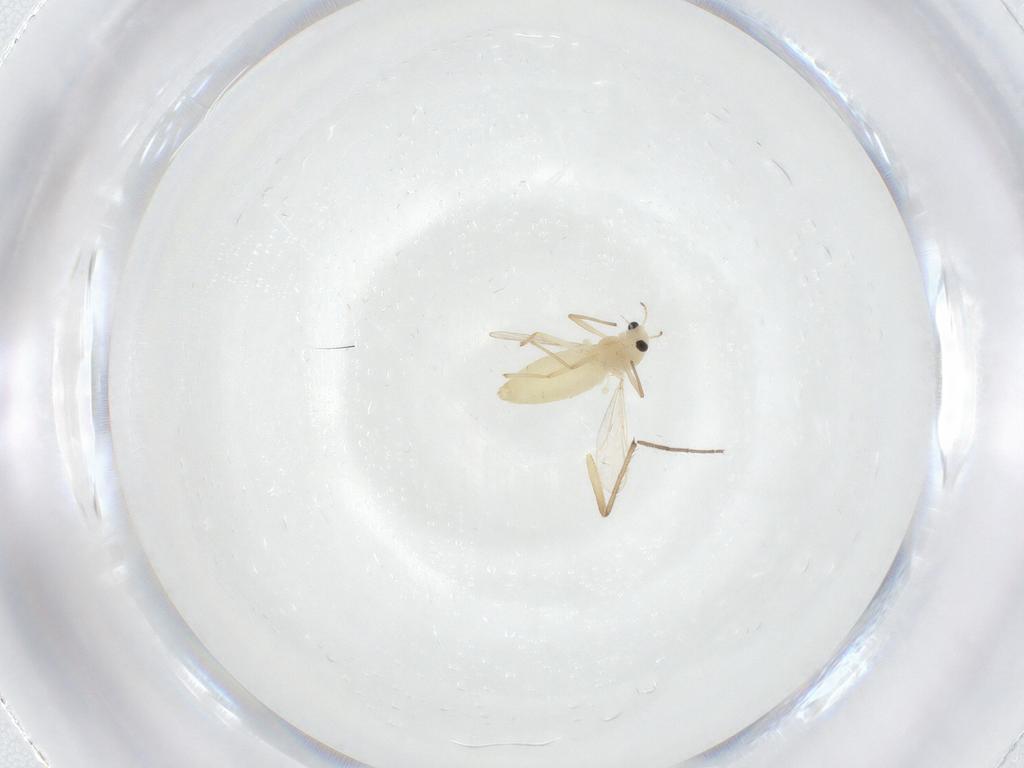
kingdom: Animalia
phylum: Arthropoda
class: Insecta
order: Diptera
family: Chironomidae
